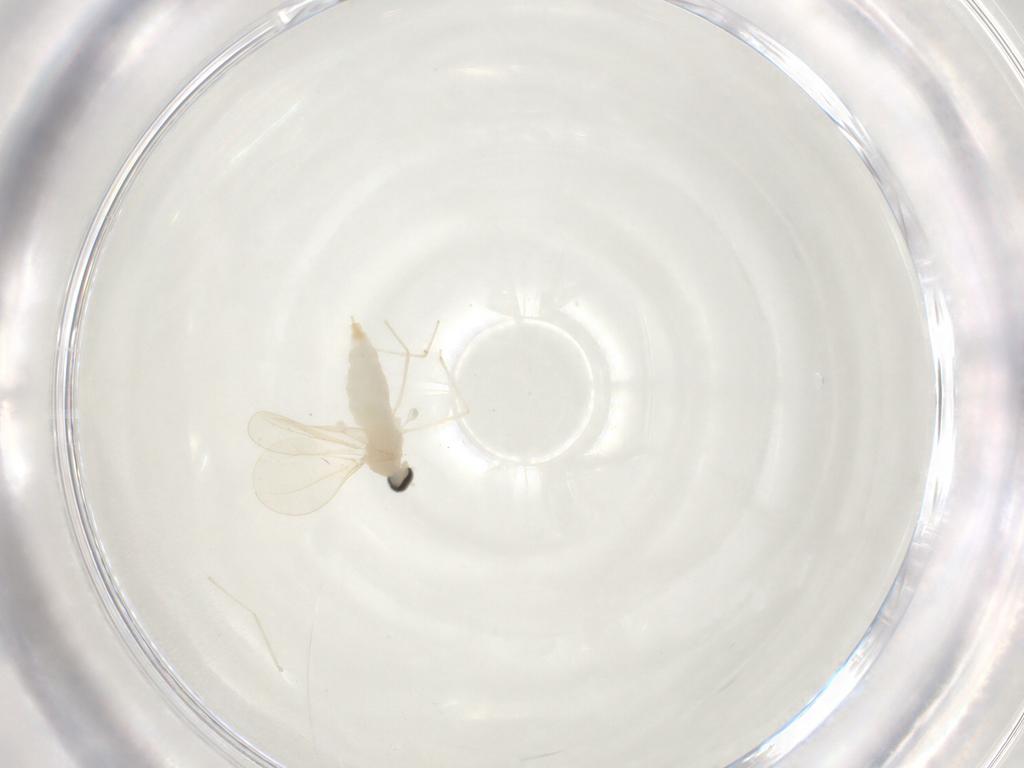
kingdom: Animalia
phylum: Arthropoda
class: Insecta
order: Diptera
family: Cecidomyiidae
